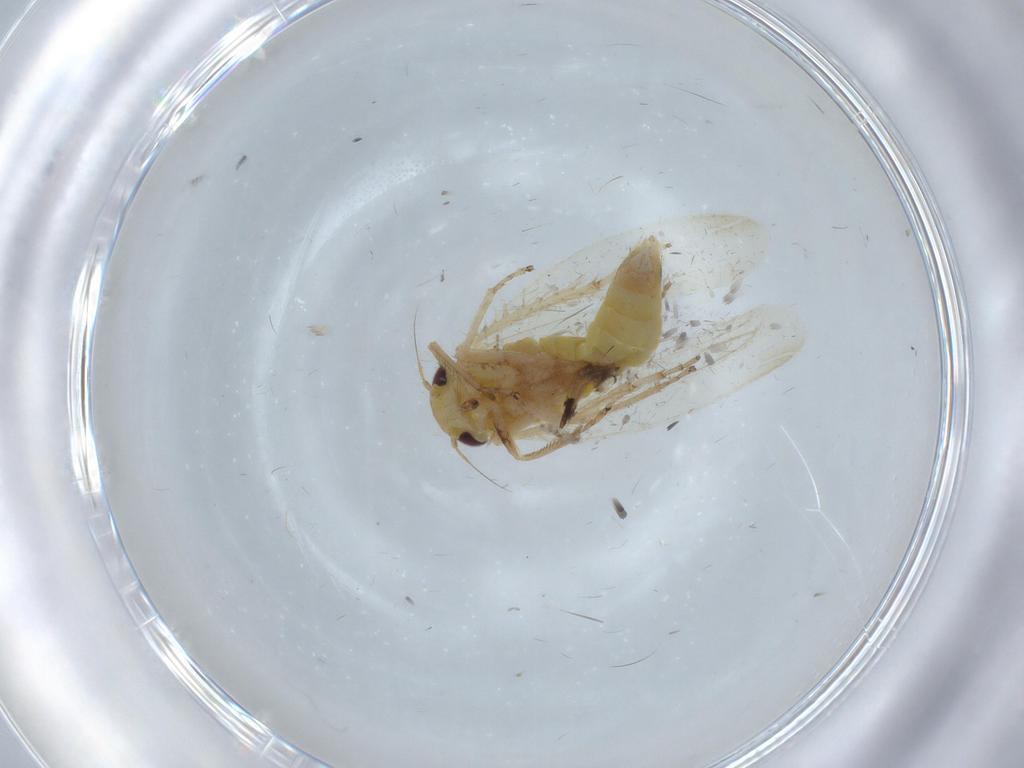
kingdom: Animalia
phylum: Arthropoda
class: Insecta
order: Hemiptera
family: Cicadellidae
